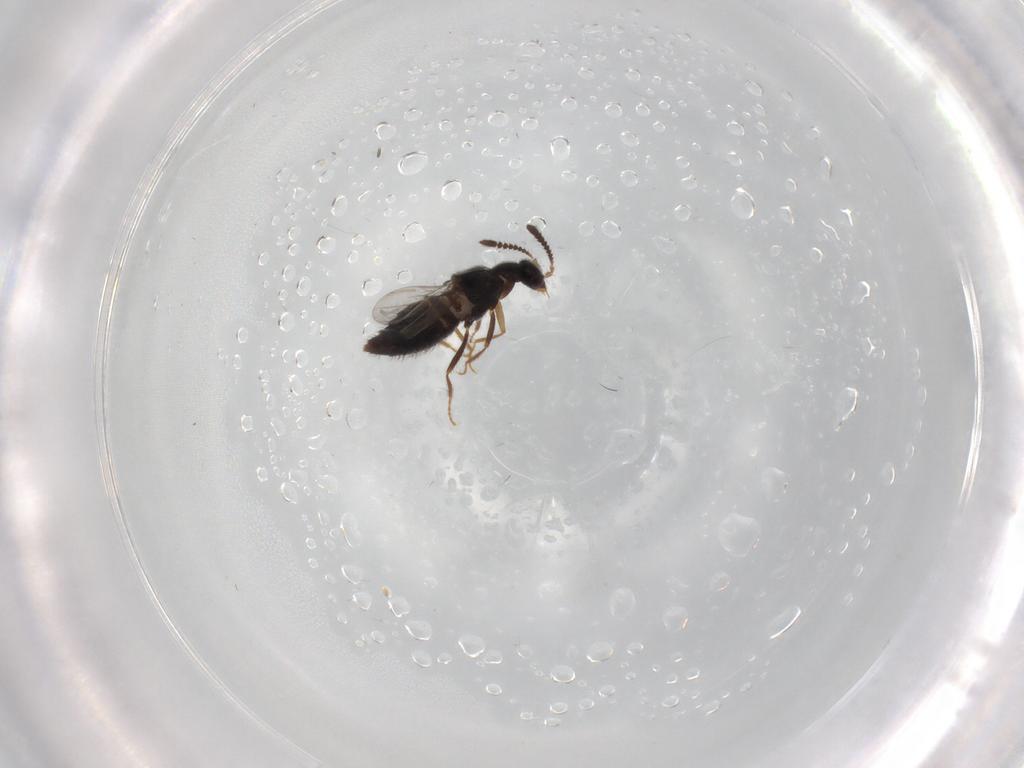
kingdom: Animalia
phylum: Arthropoda
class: Insecta
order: Coleoptera
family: Staphylinidae
